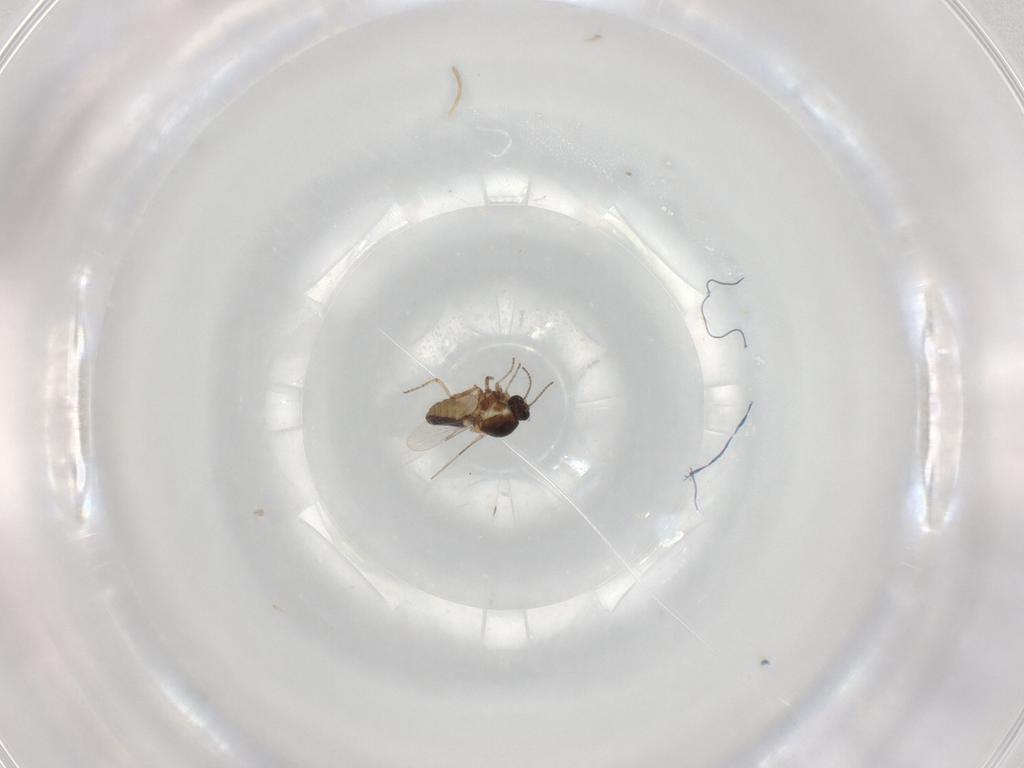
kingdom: Animalia
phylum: Arthropoda
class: Insecta
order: Diptera
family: Ceratopogonidae
